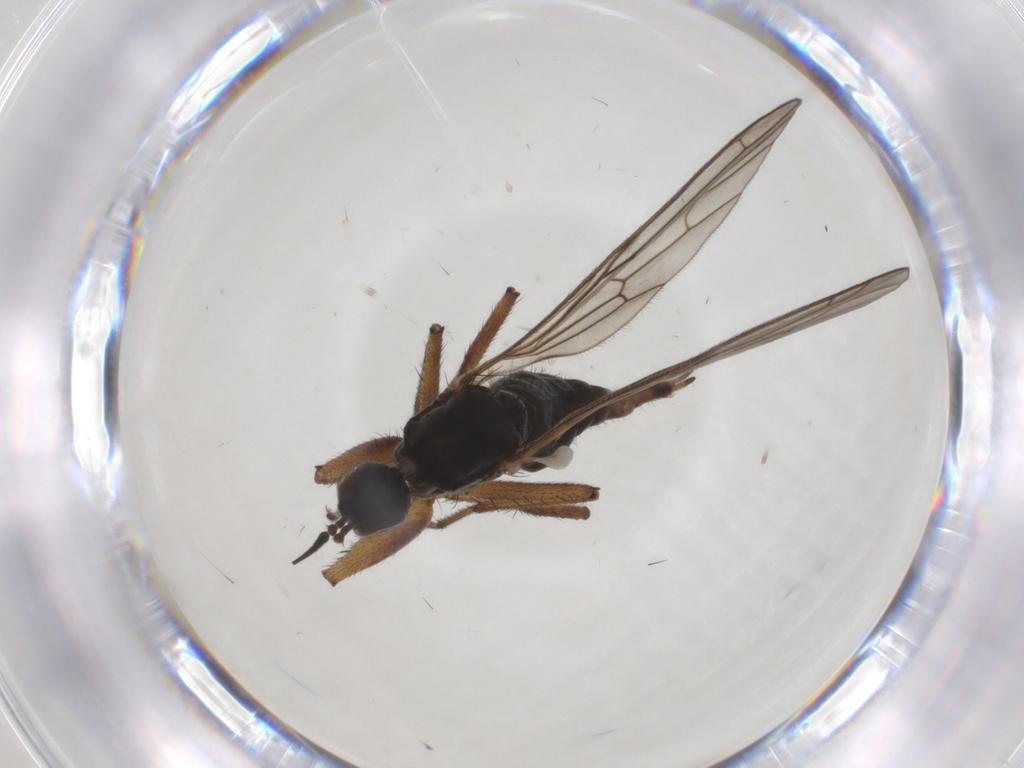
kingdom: Animalia
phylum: Arthropoda
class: Insecta
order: Diptera
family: Agromyzidae
